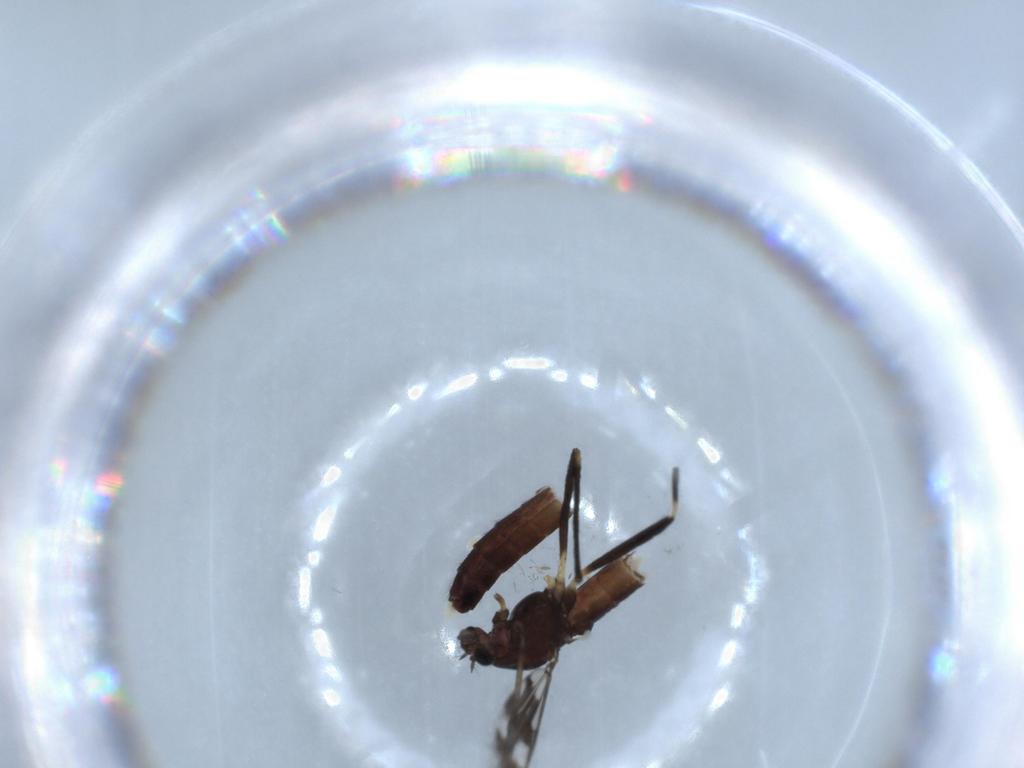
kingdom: Animalia
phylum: Arthropoda
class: Insecta
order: Diptera
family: Chironomidae
